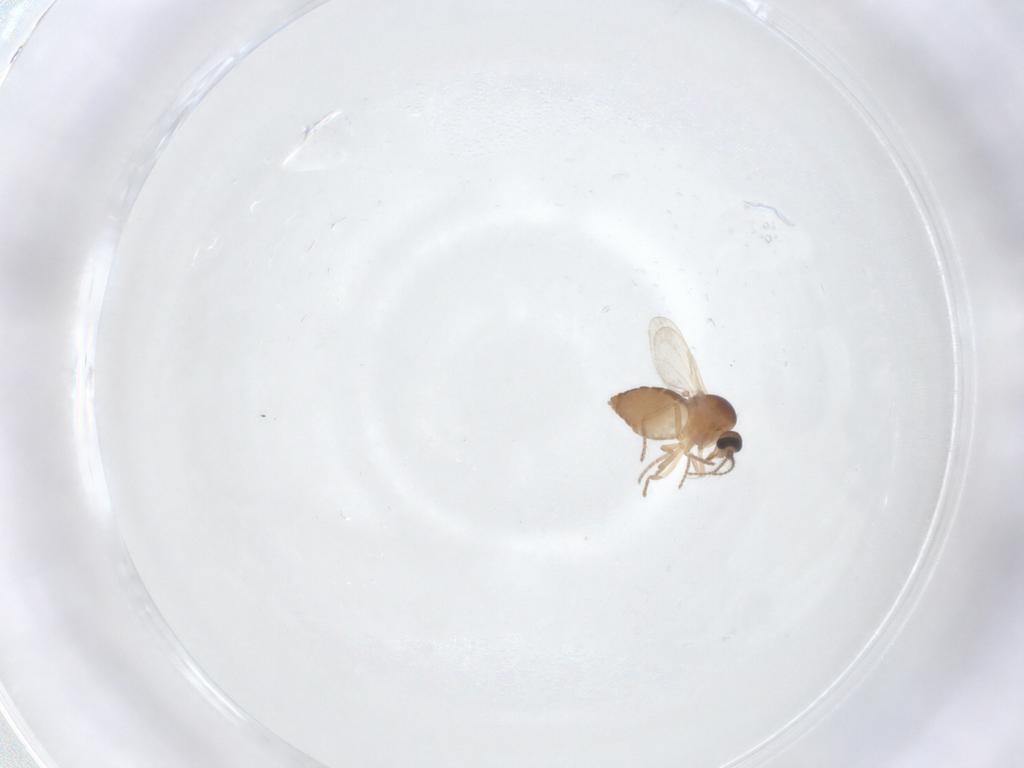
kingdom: Animalia
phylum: Arthropoda
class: Insecta
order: Diptera
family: Ceratopogonidae
